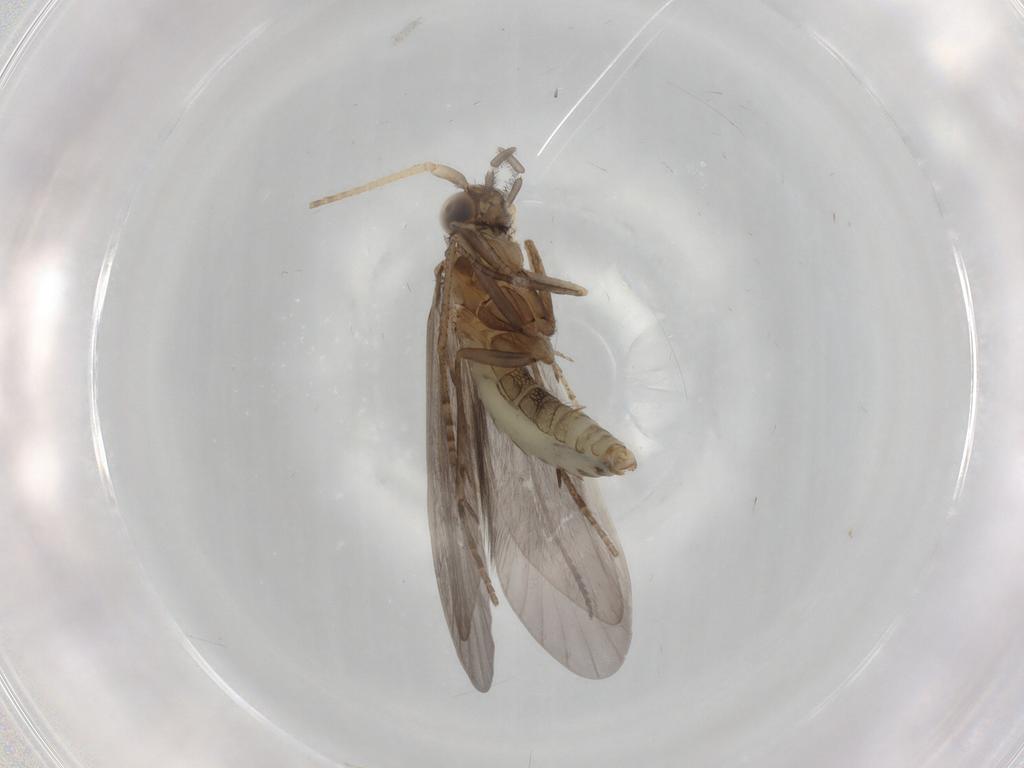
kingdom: Animalia
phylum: Arthropoda
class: Insecta
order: Trichoptera
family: Helicopsychidae
